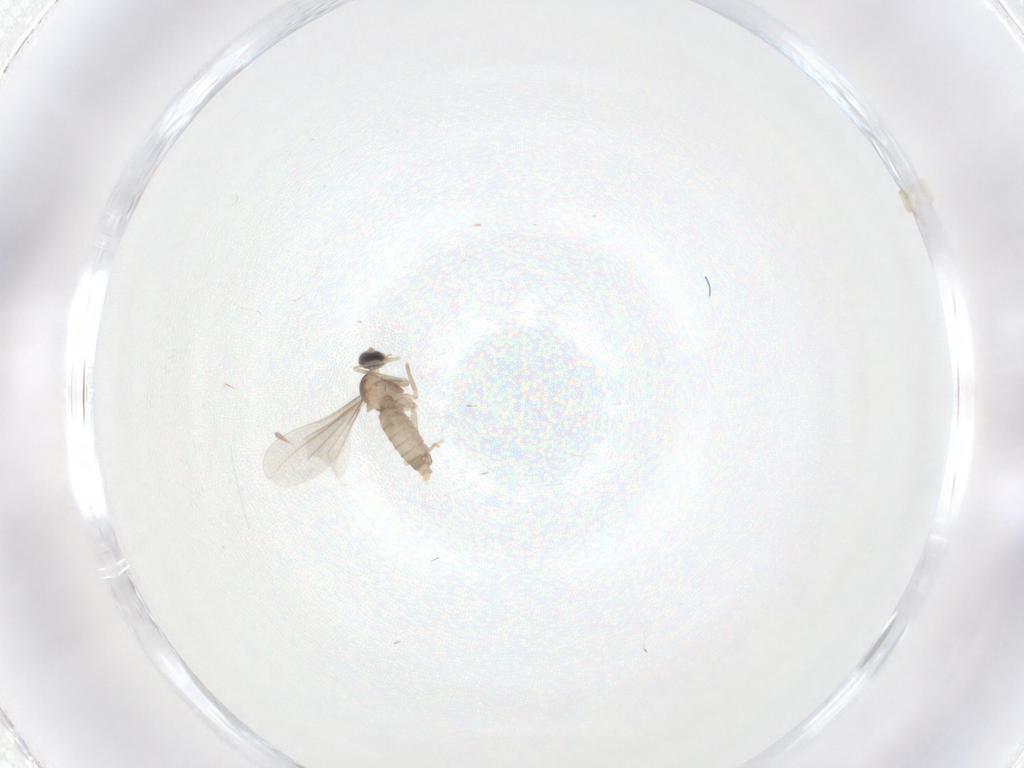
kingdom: Animalia
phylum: Arthropoda
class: Insecta
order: Diptera
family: Cecidomyiidae
